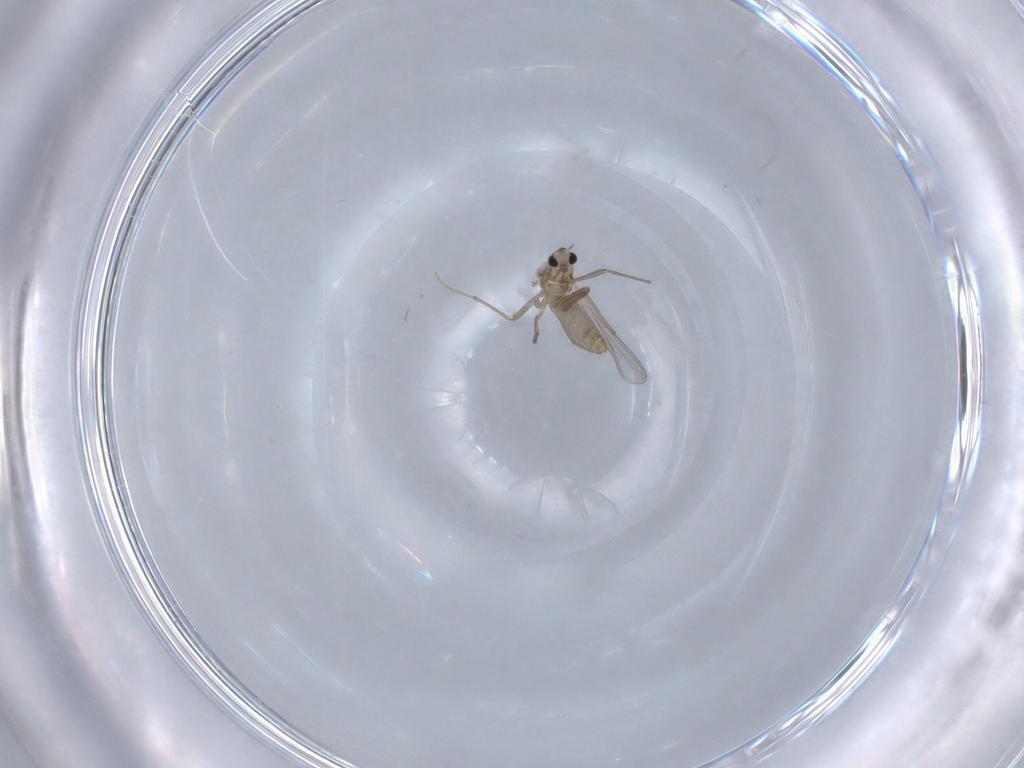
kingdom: Animalia
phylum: Arthropoda
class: Insecta
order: Diptera
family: Chironomidae
